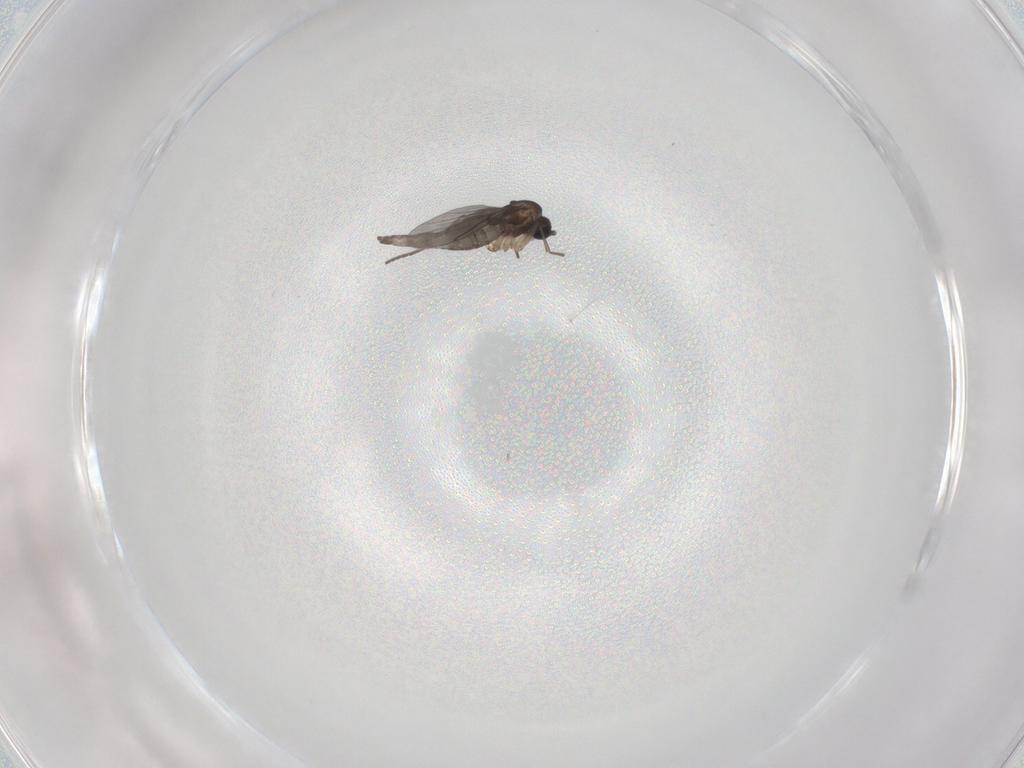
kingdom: Animalia
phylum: Arthropoda
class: Insecta
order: Diptera
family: Sciaridae
